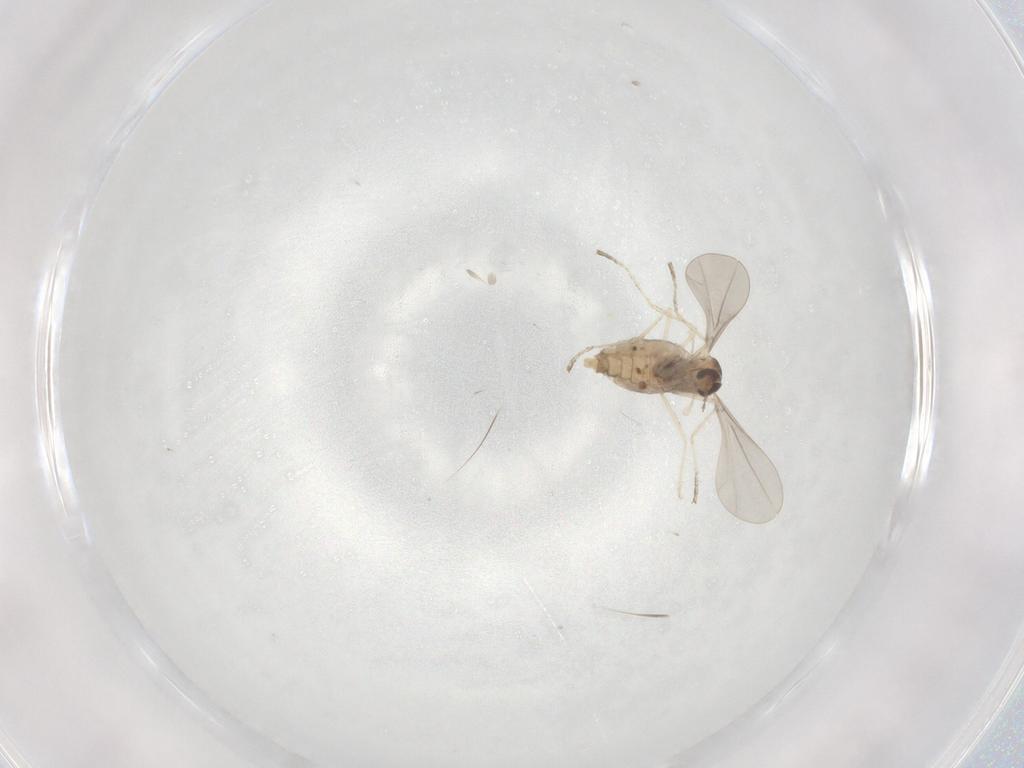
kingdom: Animalia
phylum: Arthropoda
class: Insecta
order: Diptera
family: Cecidomyiidae
